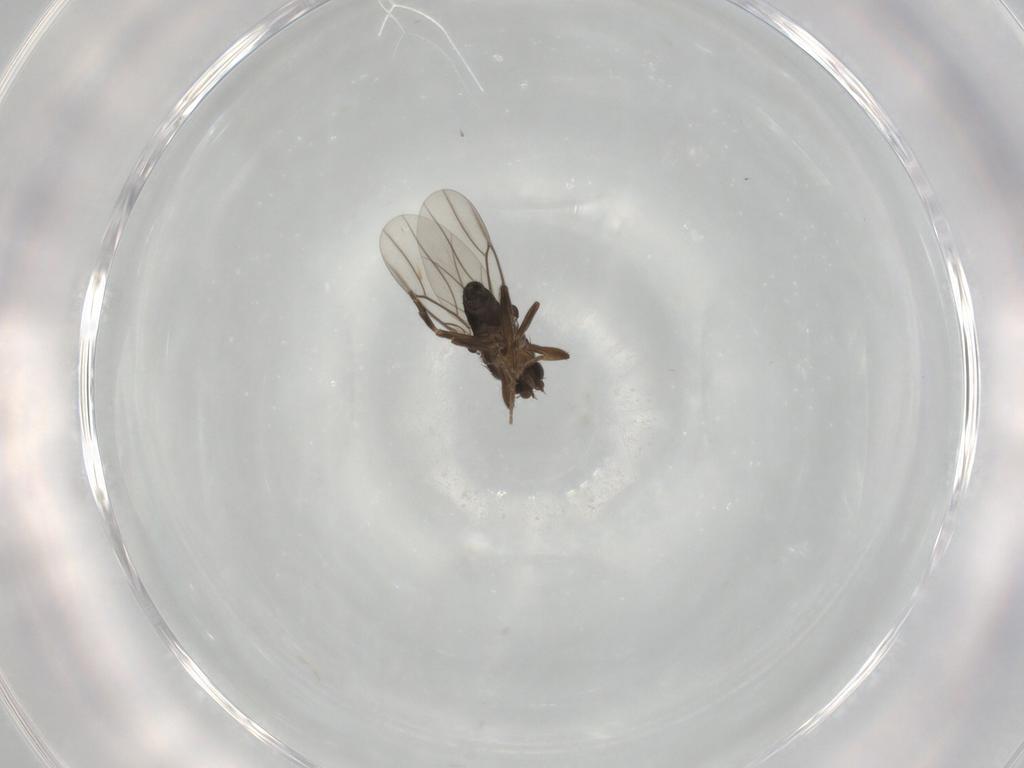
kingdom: Animalia
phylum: Arthropoda
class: Insecta
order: Diptera
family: Phoridae
